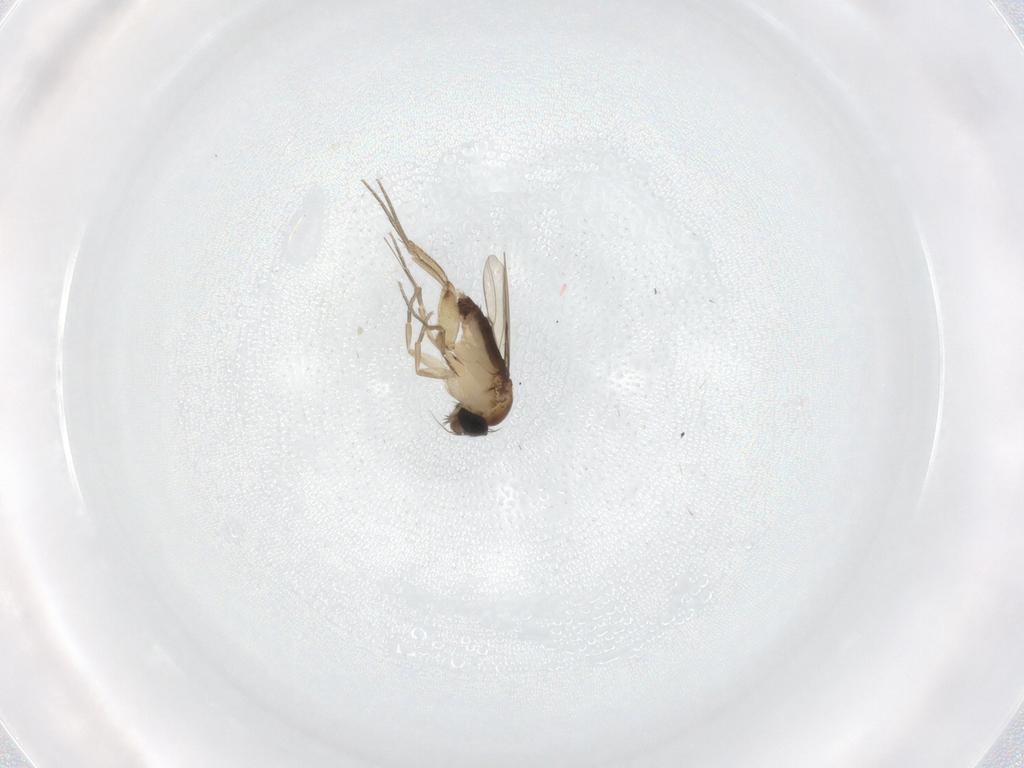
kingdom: Animalia
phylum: Arthropoda
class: Insecta
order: Diptera
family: Phoridae
